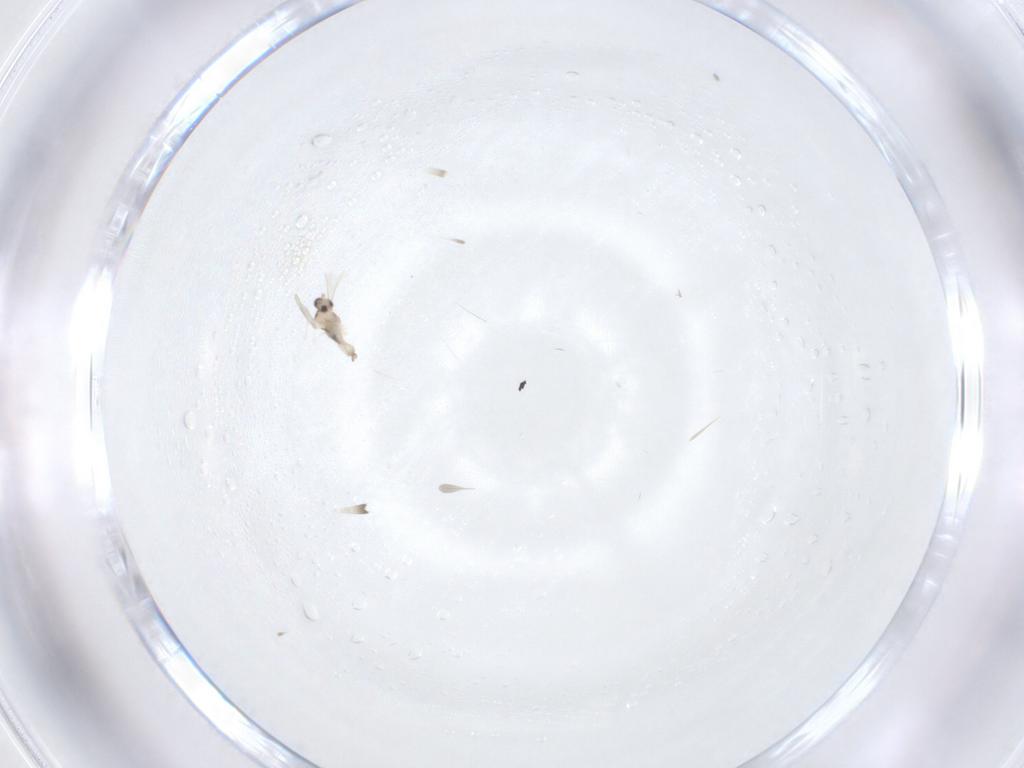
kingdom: Animalia
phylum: Arthropoda
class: Insecta
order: Diptera
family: Cecidomyiidae
